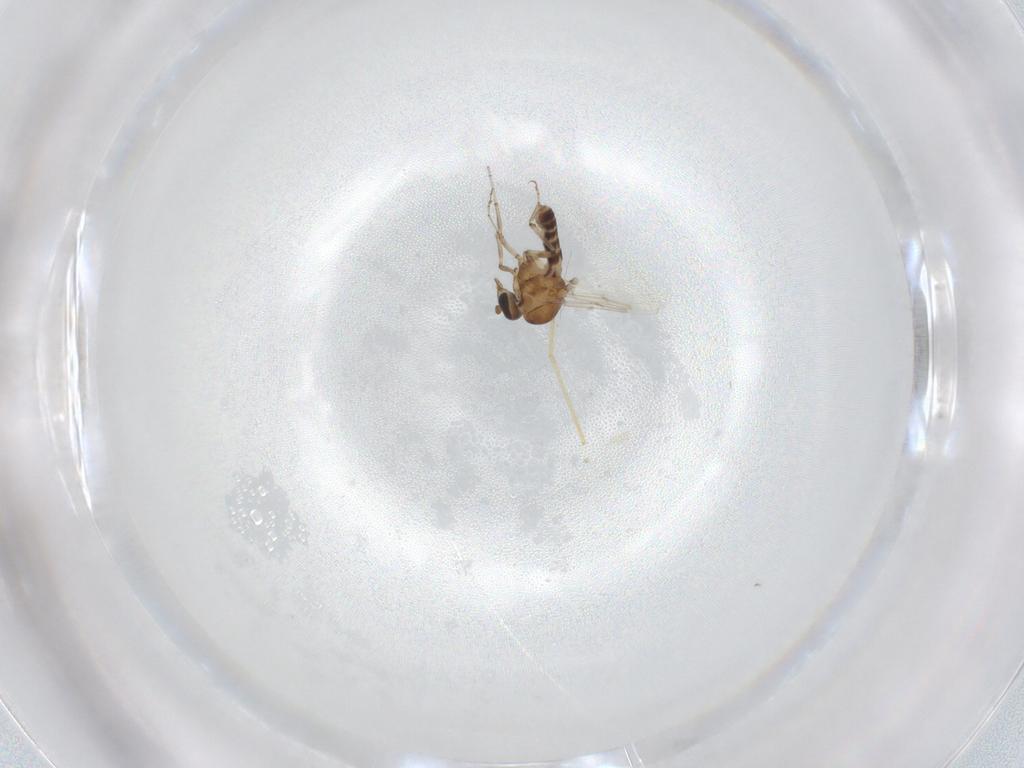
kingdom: Animalia
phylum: Arthropoda
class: Insecta
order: Diptera
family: Ceratopogonidae
